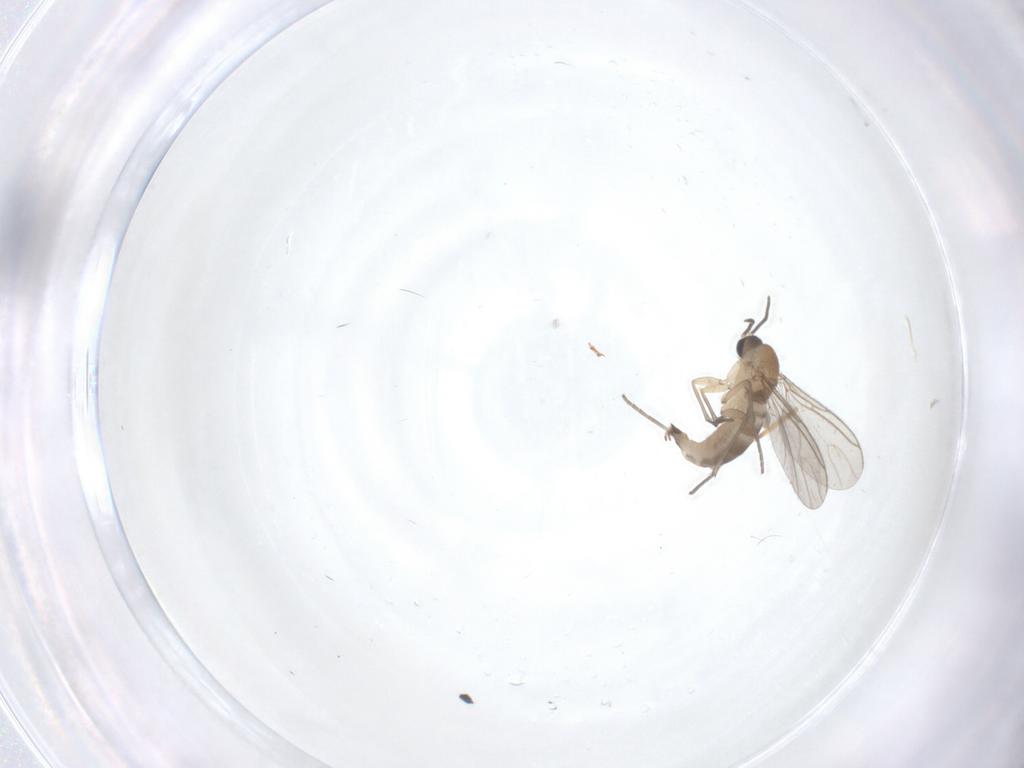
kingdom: Animalia
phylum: Arthropoda
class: Insecta
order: Diptera
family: Sciaridae
